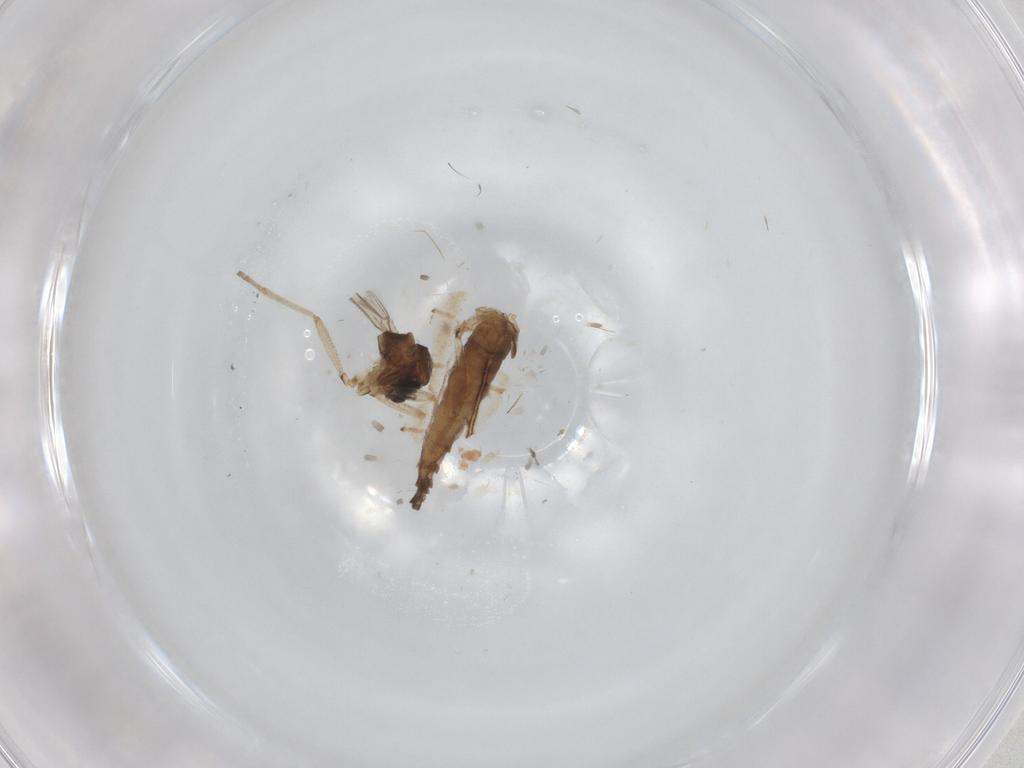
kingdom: Animalia
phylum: Arthropoda
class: Insecta
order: Diptera
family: Sciaridae
